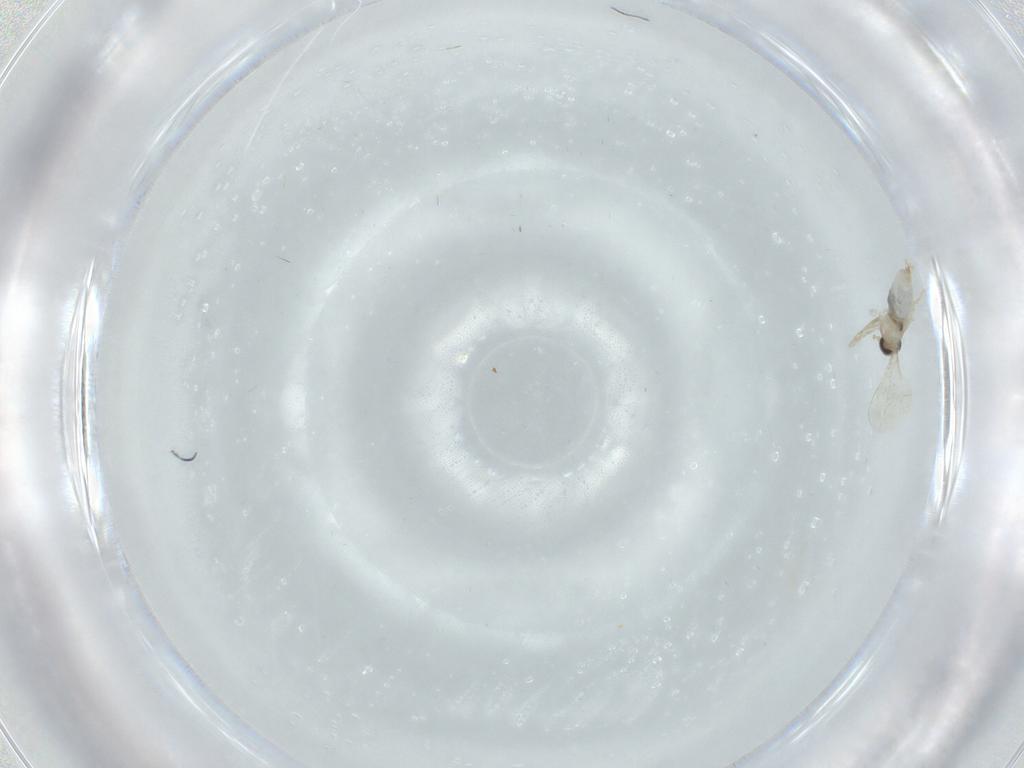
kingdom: Animalia
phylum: Arthropoda
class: Insecta
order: Diptera
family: Cecidomyiidae
